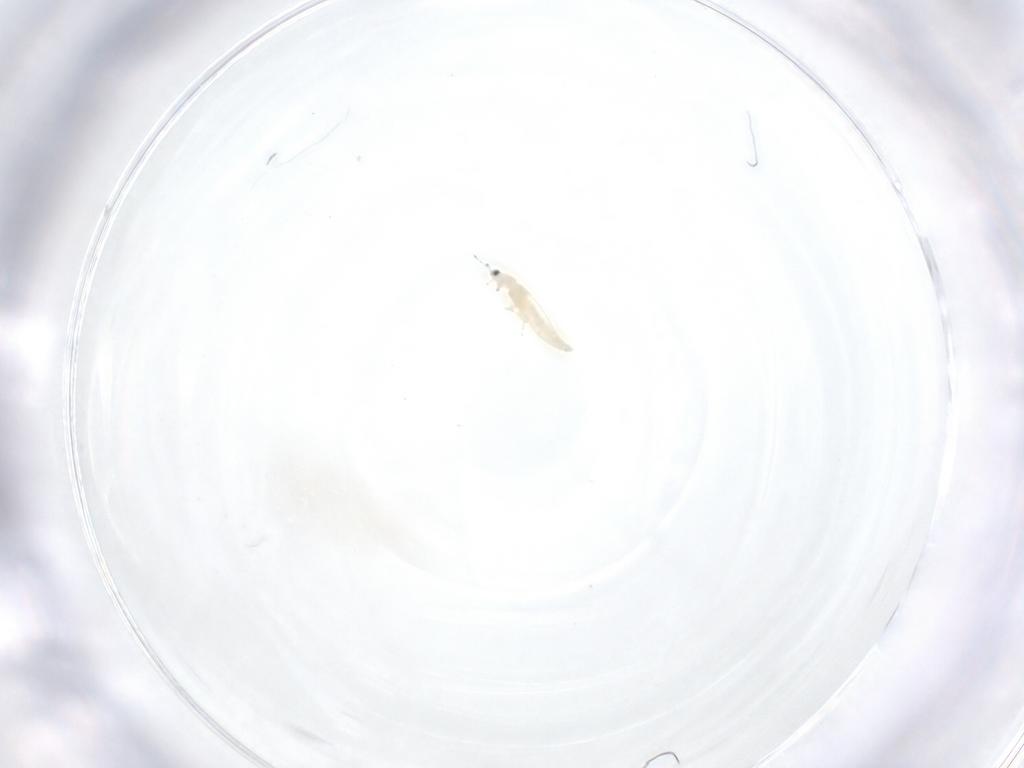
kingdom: Animalia
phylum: Arthropoda
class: Insecta
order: Thysanoptera
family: Thripidae
